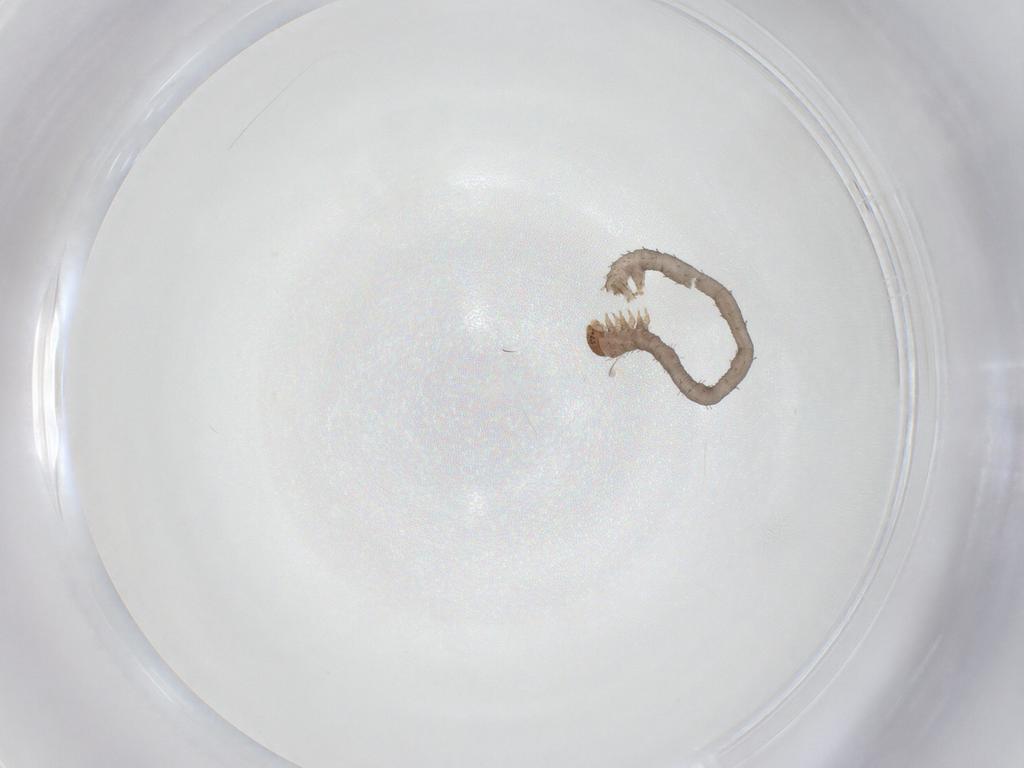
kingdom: Animalia
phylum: Arthropoda
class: Insecta
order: Lepidoptera
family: Geometridae
